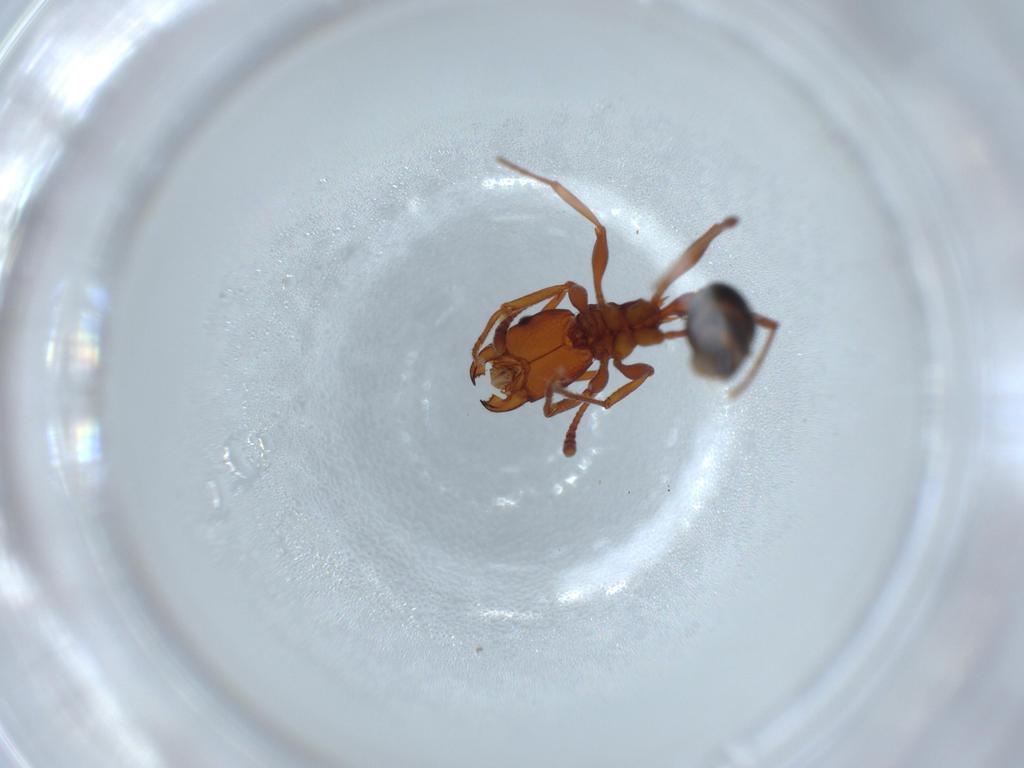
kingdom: Animalia
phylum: Arthropoda
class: Insecta
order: Hymenoptera
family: Formicidae
